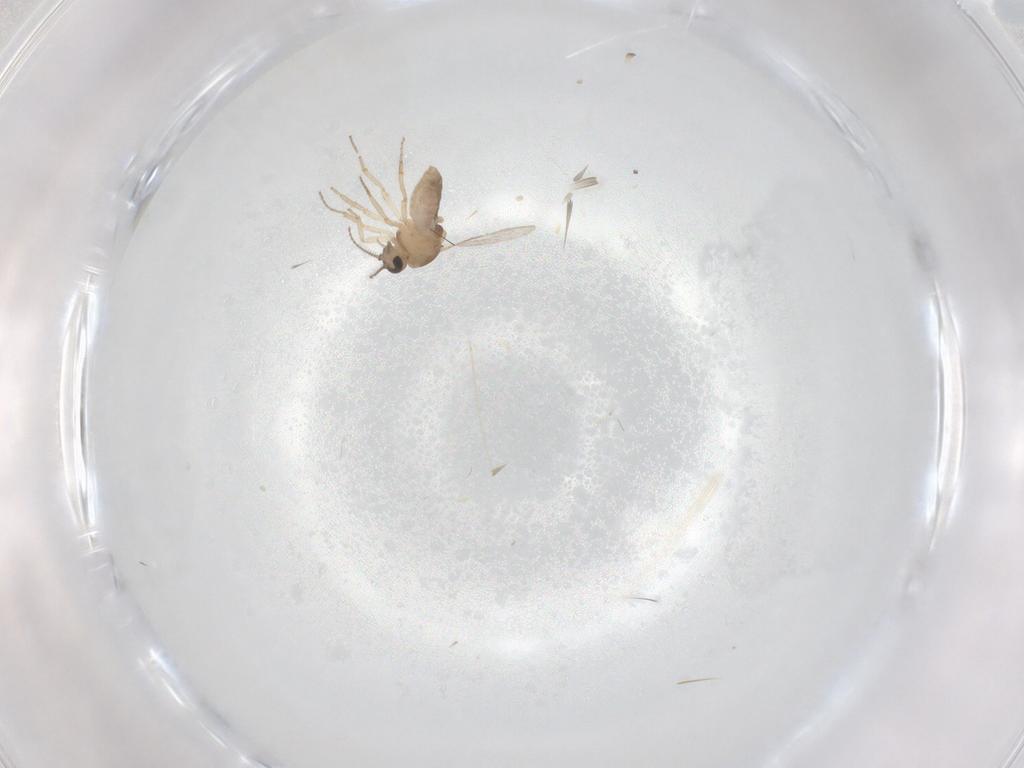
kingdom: Animalia
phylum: Arthropoda
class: Insecta
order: Diptera
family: Ceratopogonidae
